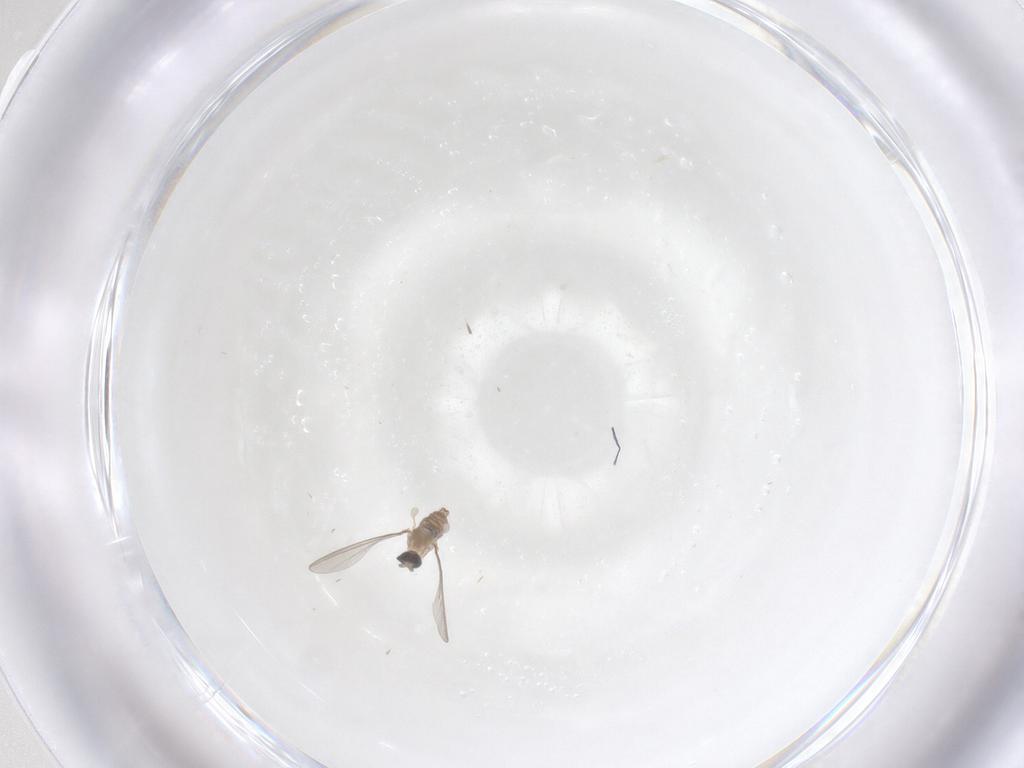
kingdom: Animalia
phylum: Arthropoda
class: Insecta
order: Diptera
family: Cecidomyiidae
